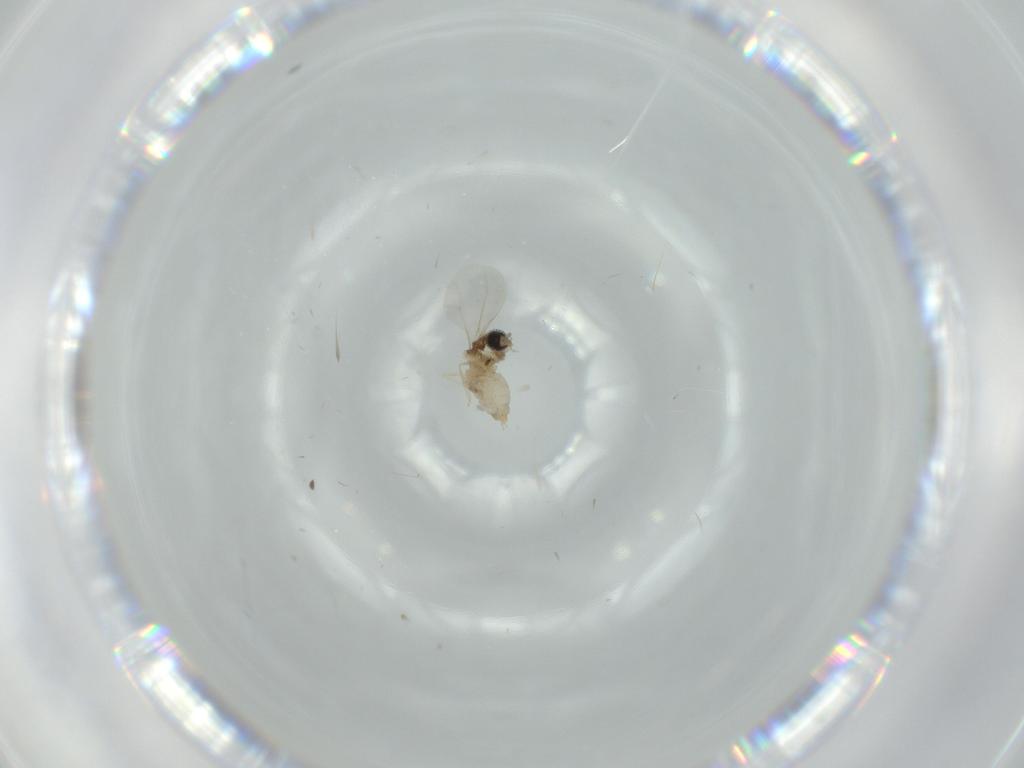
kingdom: Animalia
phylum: Arthropoda
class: Insecta
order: Diptera
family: Cecidomyiidae
